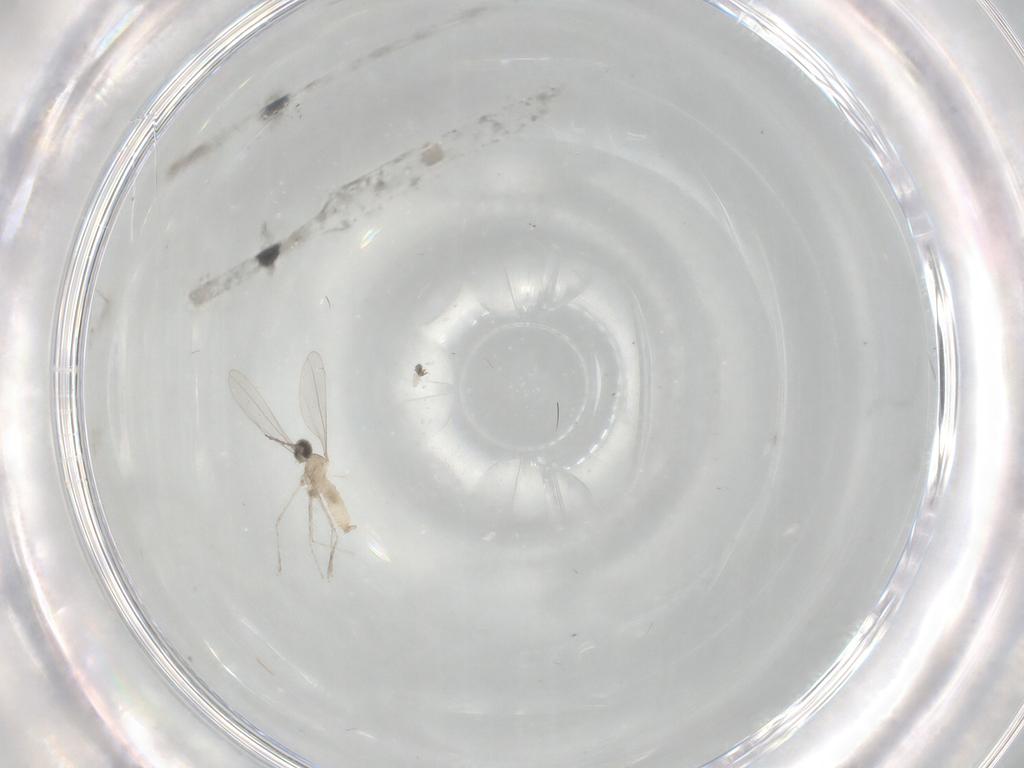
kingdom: Animalia
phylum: Arthropoda
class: Insecta
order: Diptera
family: Cecidomyiidae
